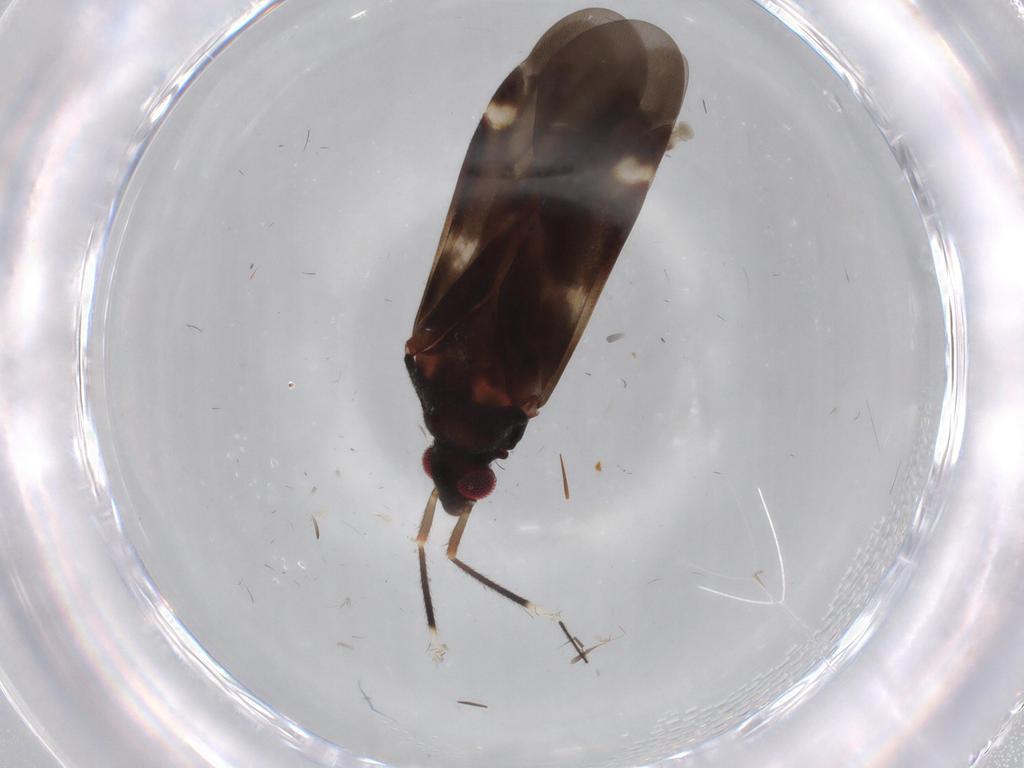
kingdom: Animalia
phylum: Arthropoda
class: Insecta
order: Hemiptera
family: Miridae
